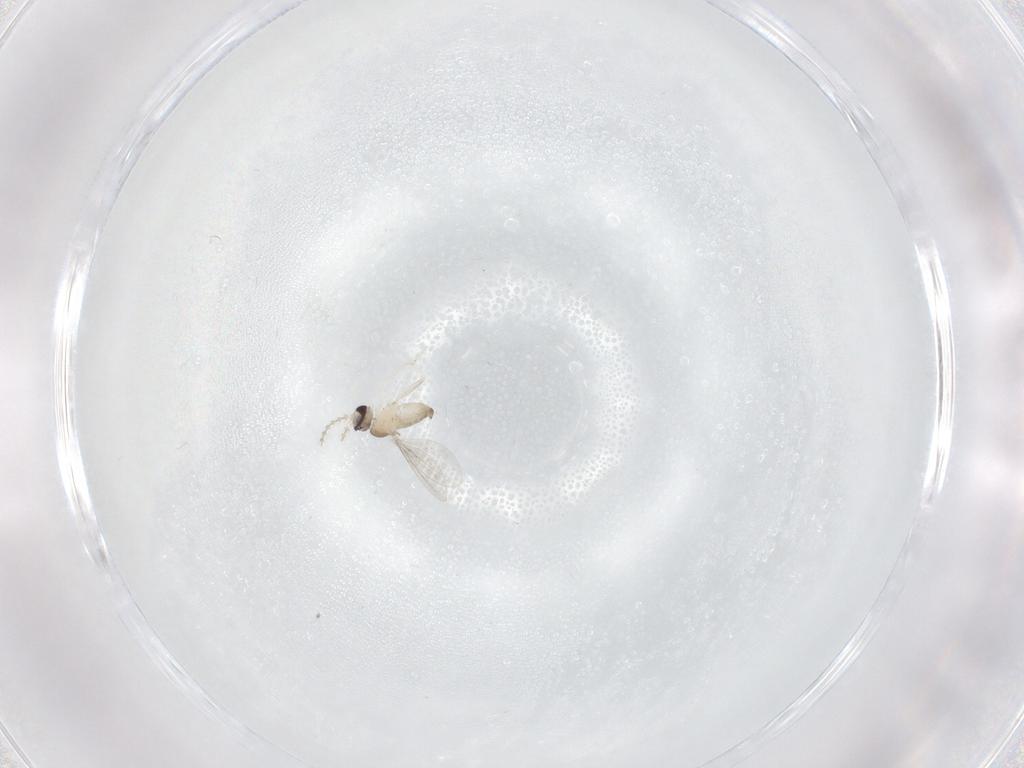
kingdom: Animalia
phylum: Arthropoda
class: Insecta
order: Diptera
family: Cecidomyiidae
